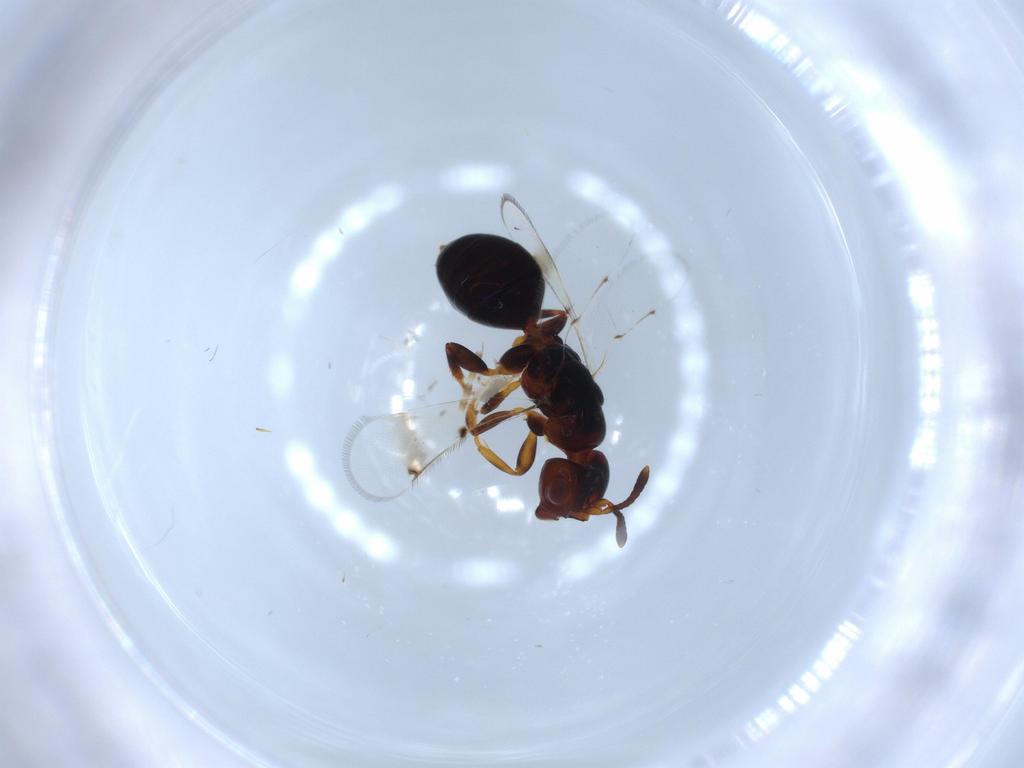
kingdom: Animalia
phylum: Arthropoda
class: Insecta
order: Hymenoptera
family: Cerocephalidae
